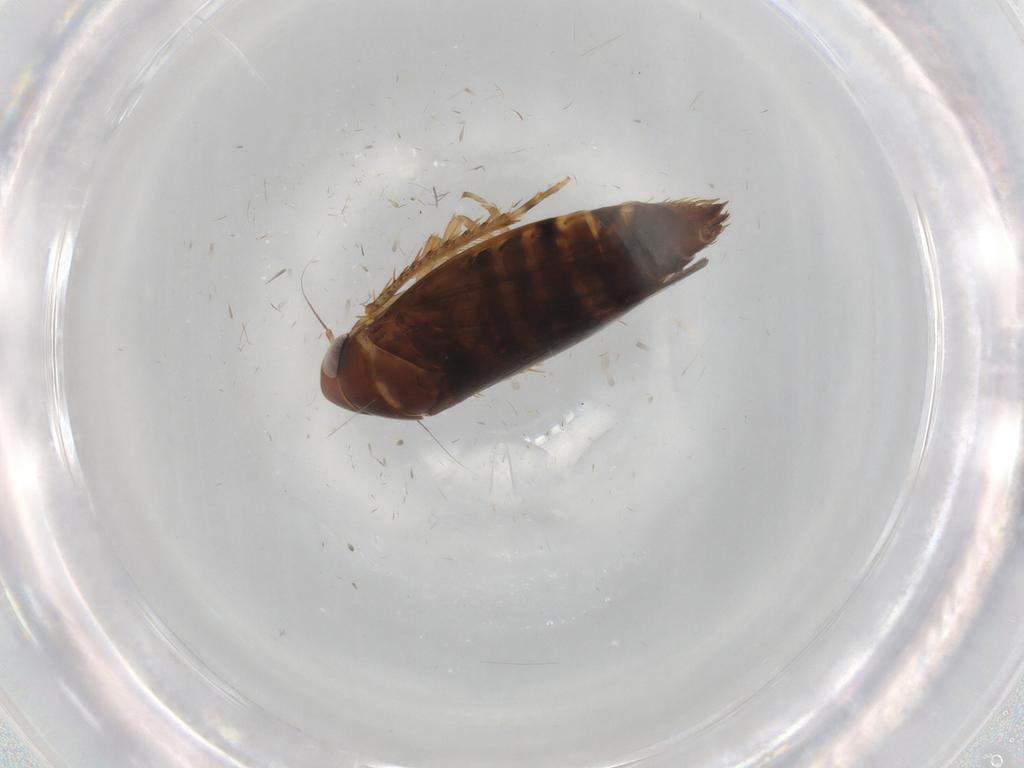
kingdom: Animalia
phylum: Arthropoda
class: Insecta
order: Hemiptera
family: Cicadellidae
